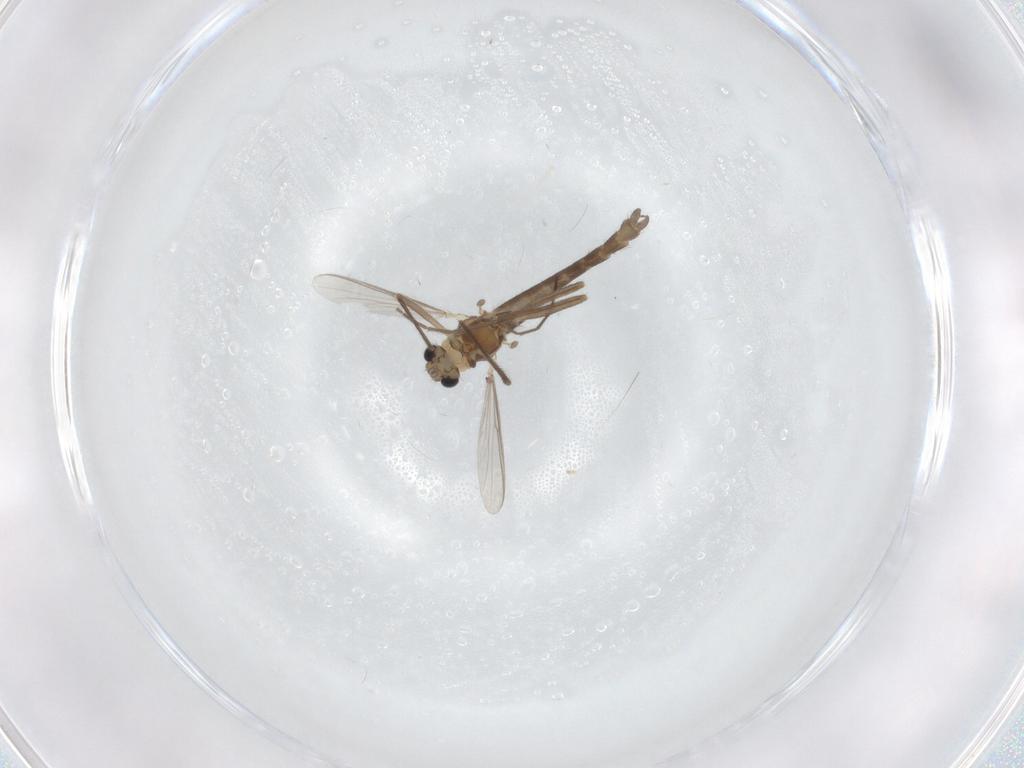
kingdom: Animalia
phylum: Arthropoda
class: Insecta
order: Diptera
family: Chironomidae
